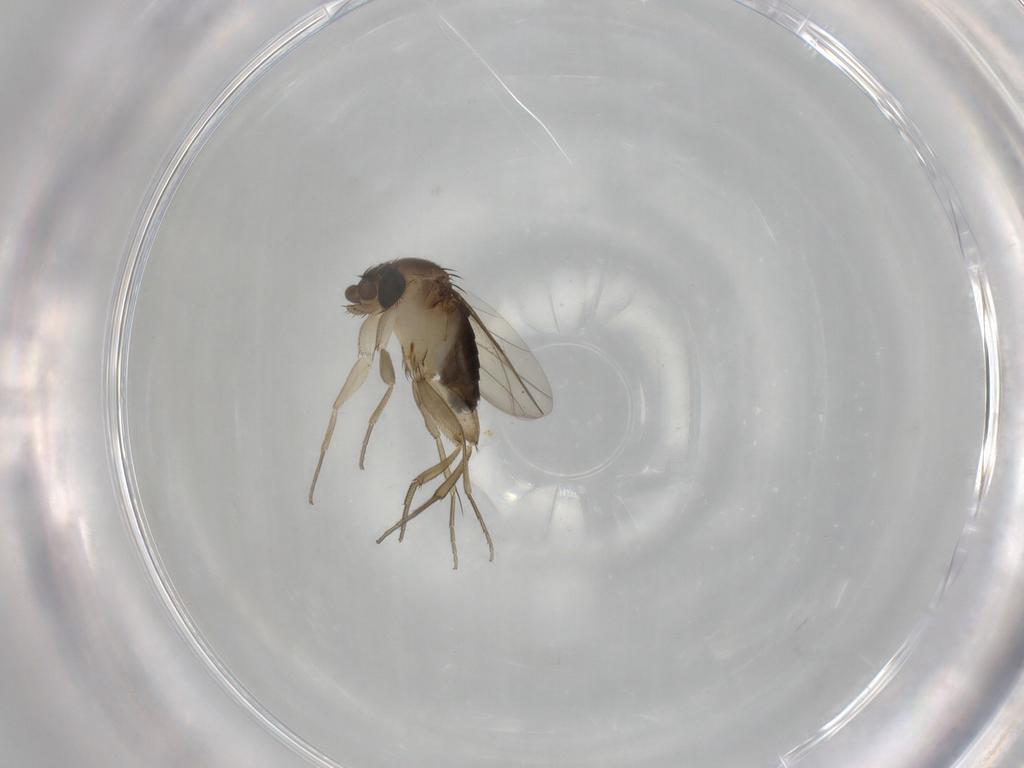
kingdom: Animalia
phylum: Arthropoda
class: Insecta
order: Diptera
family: Phoridae
